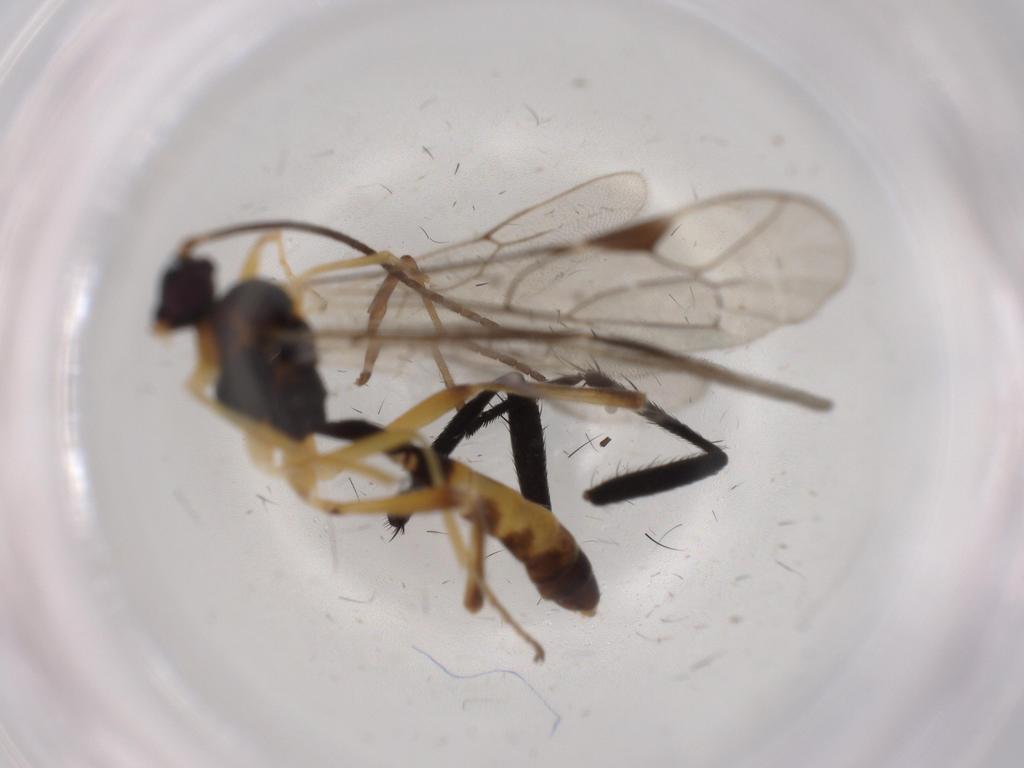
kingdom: Animalia
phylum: Arthropoda
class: Insecta
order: Hymenoptera
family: Ichneumonidae
